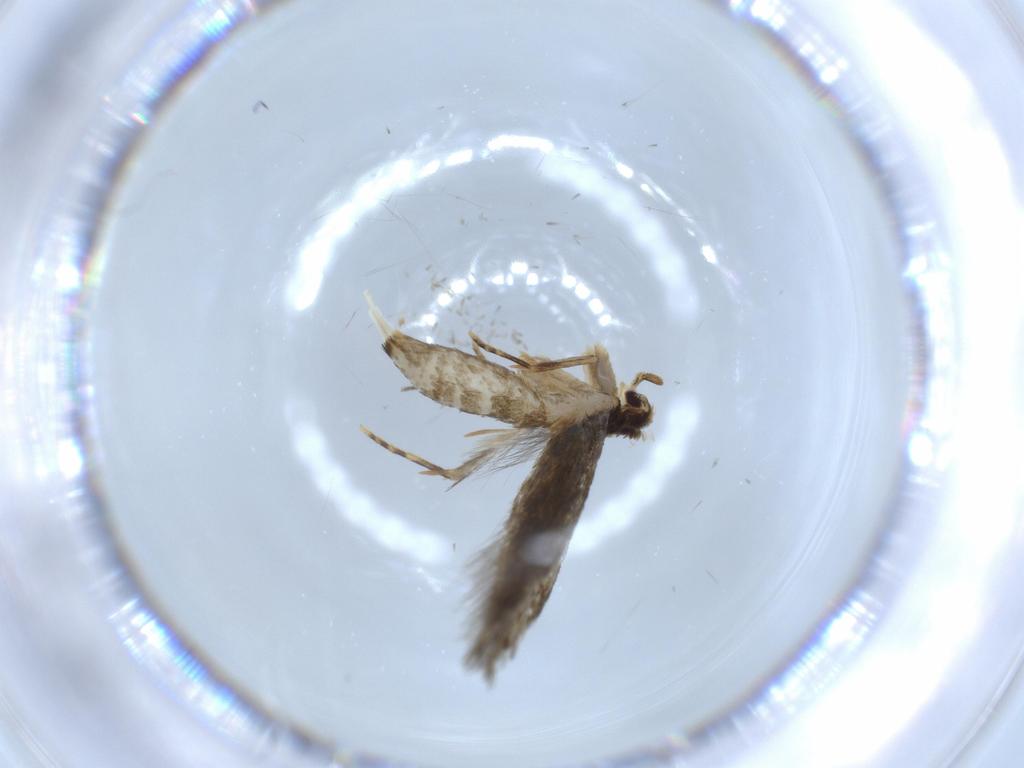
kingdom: Animalia
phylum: Arthropoda
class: Insecta
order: Lepidoptera
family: Tineidae
